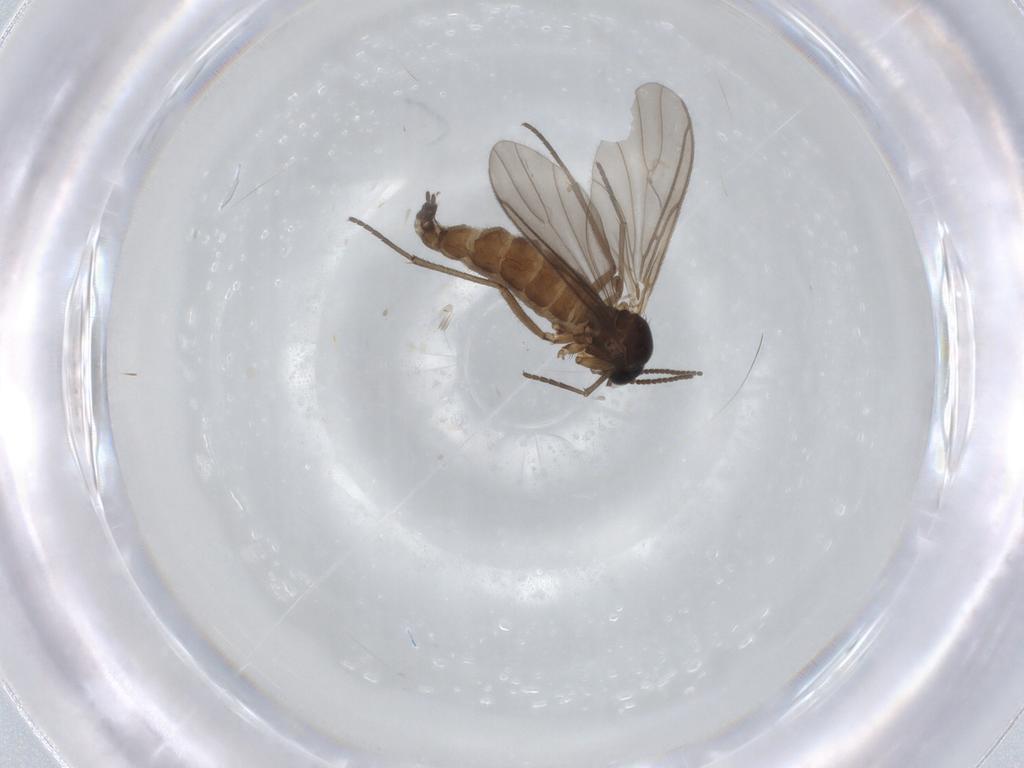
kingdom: Animalia
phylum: Arthropoda
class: Insecta
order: Diptera
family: Sciaridae
